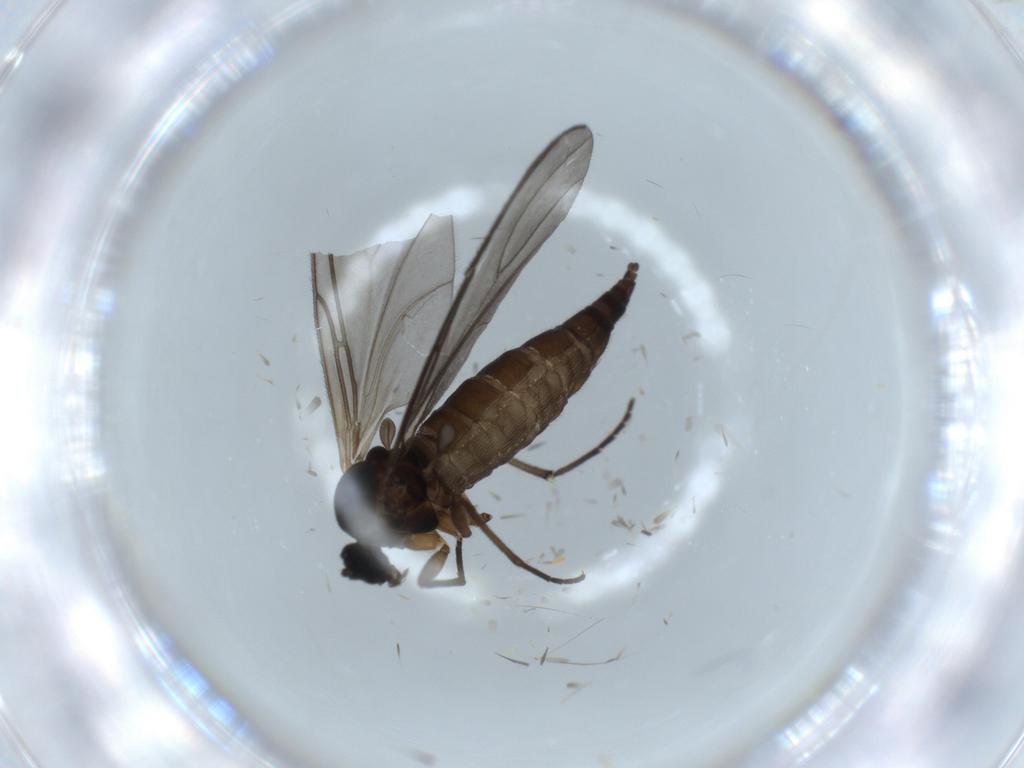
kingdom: Animalia
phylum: Arthropoda
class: Insecta
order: Diptera
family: Sciaridae
